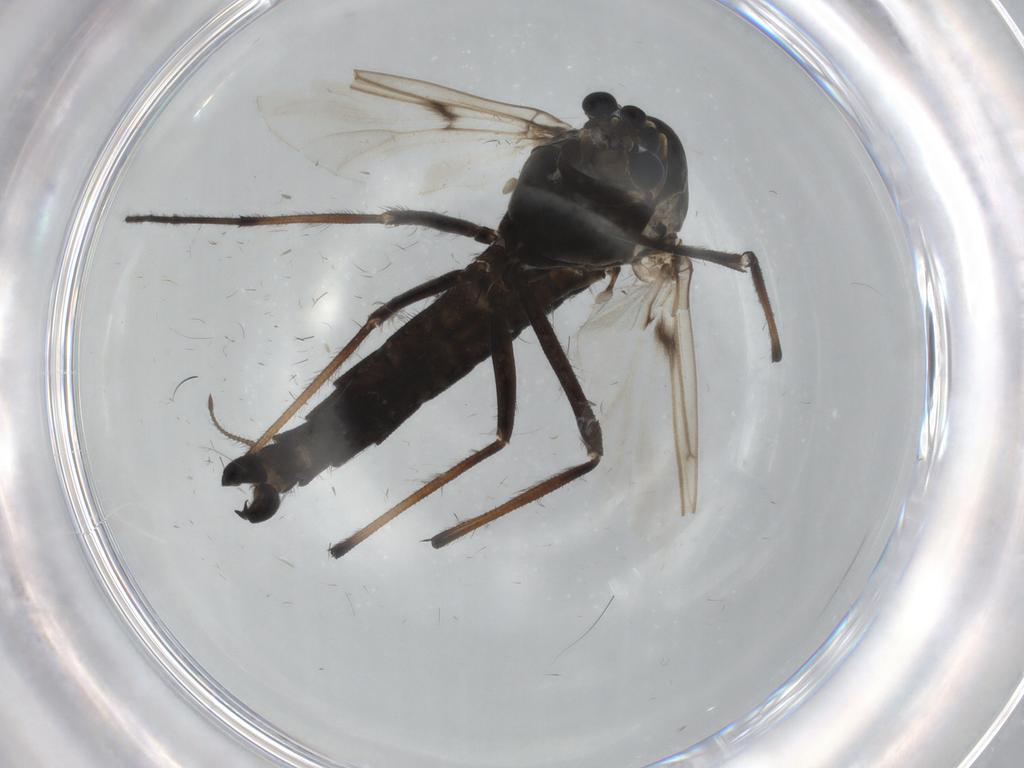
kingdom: Animalia
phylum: Arthropoda
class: Insecta
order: Diptera
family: Chironomidae
